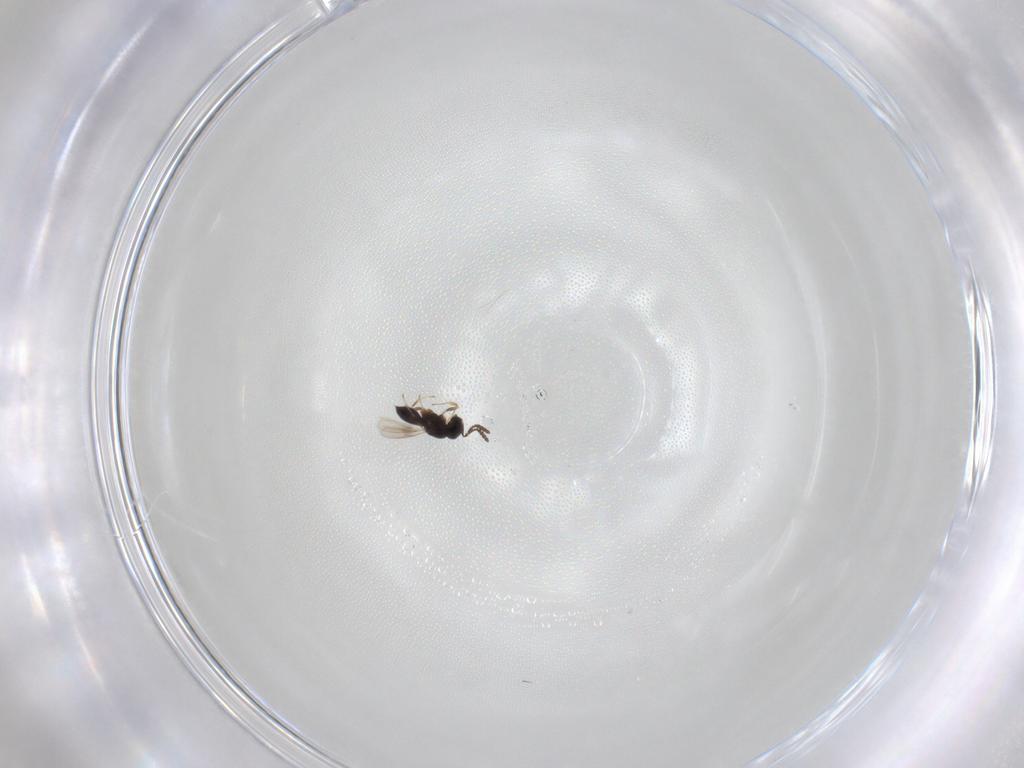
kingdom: Animalia
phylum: Arthropoda
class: Insecta
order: Hymenoptera
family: Scelionidae
